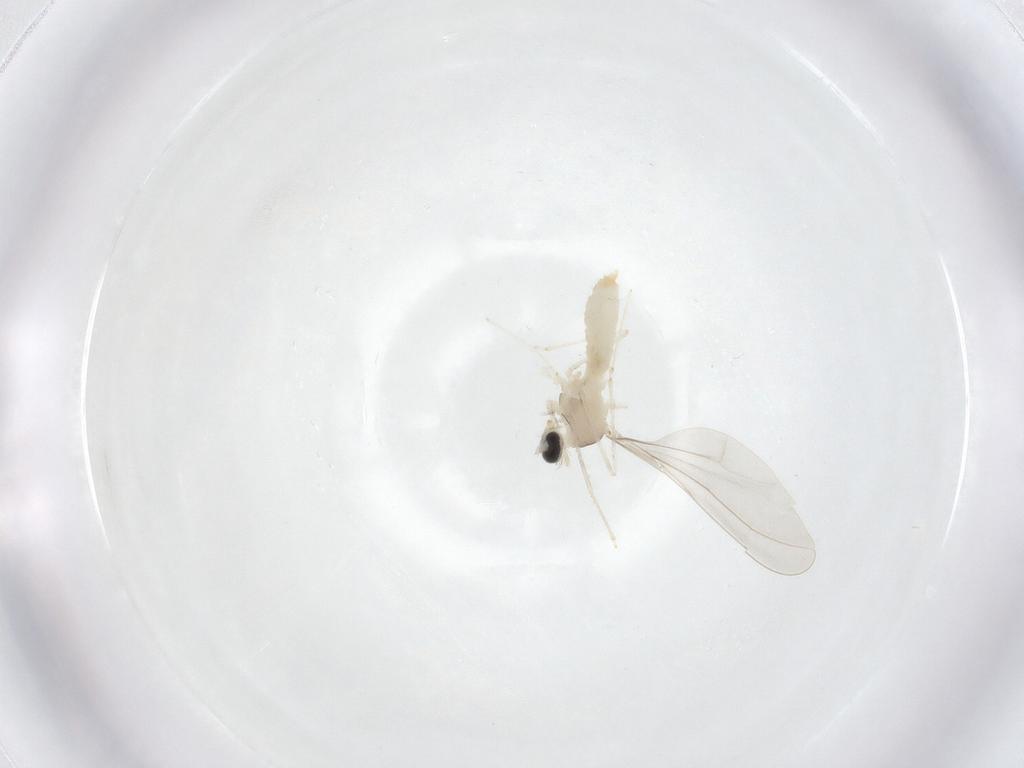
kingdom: Animalia
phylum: Arthropoda
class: Insecta
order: Diptera
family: Cecidomyiidae
